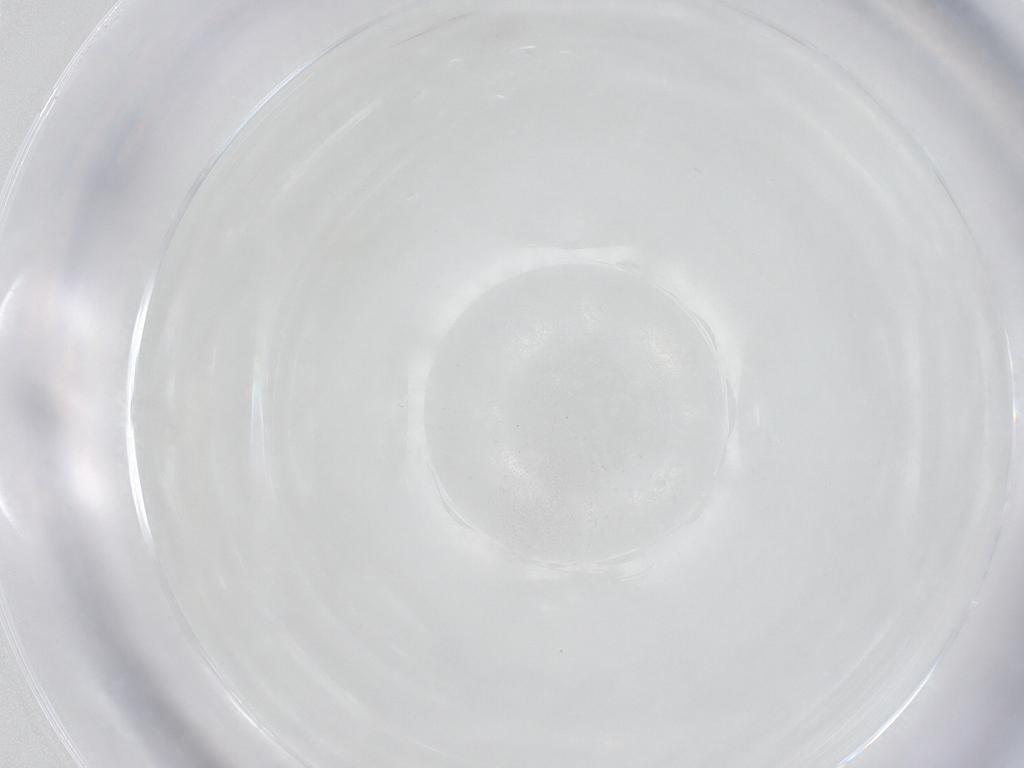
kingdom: Animalia
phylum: Arthropoda
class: Insecta
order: Diptera
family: Cecidomyiidae
